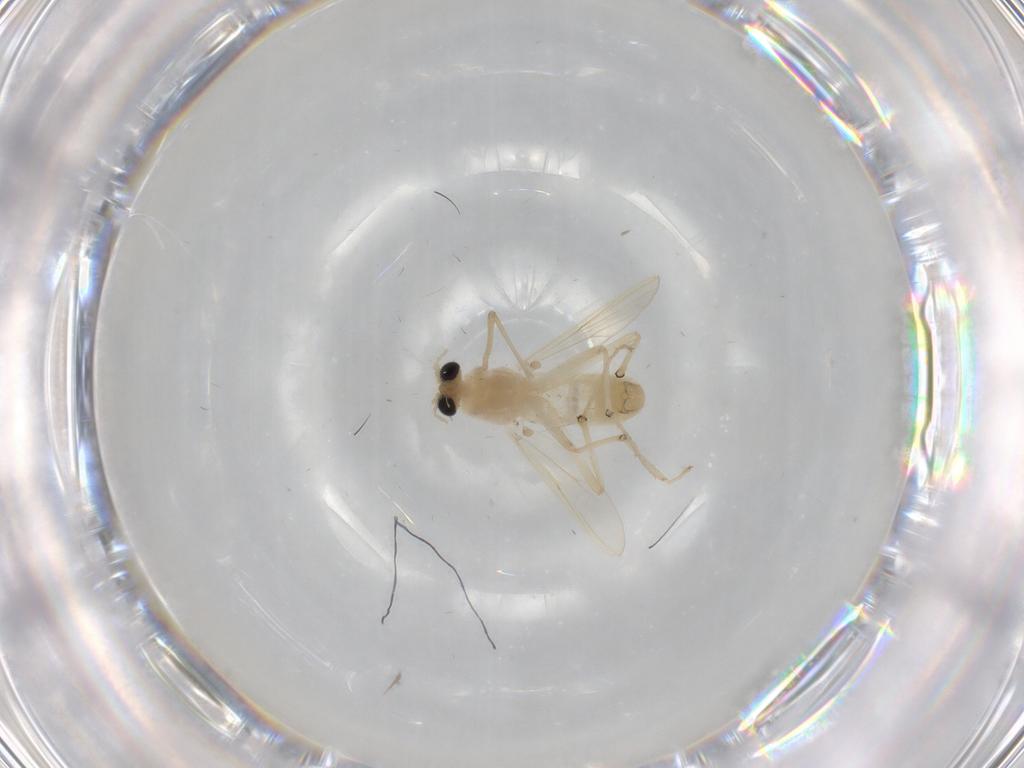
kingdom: Animalia
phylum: Arthropoda
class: Insecta
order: Diptera
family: Chironomidae
